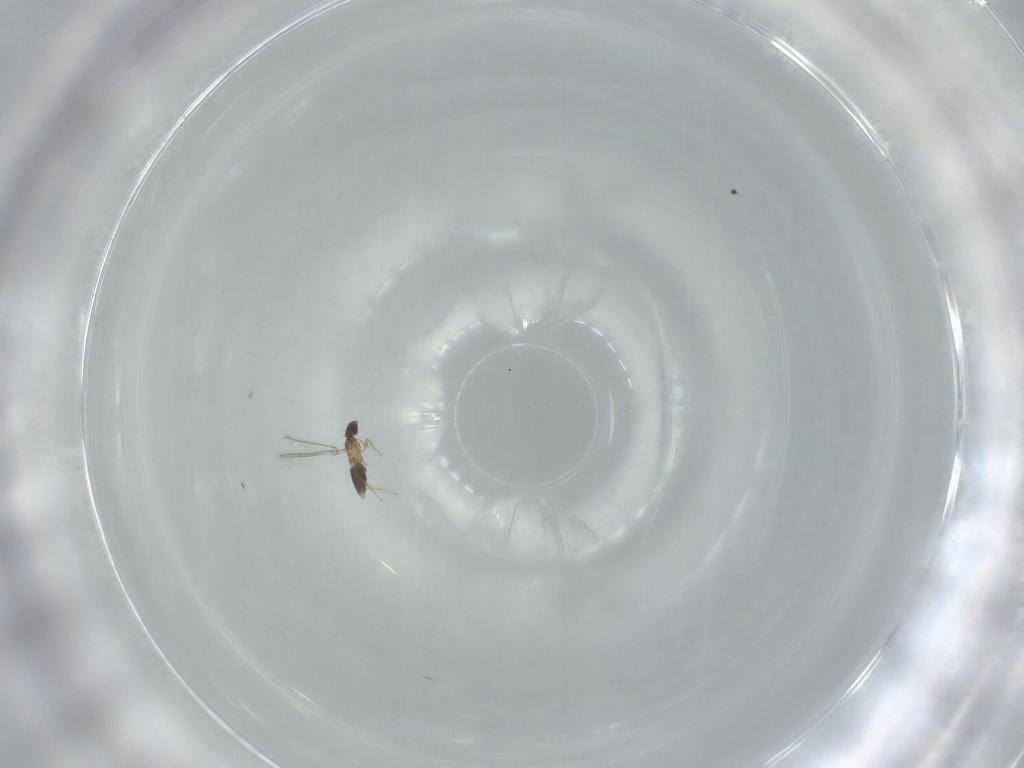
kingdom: Animalia
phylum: Arthropoda
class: Insecta
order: Hymenoptera
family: Mymaridae
